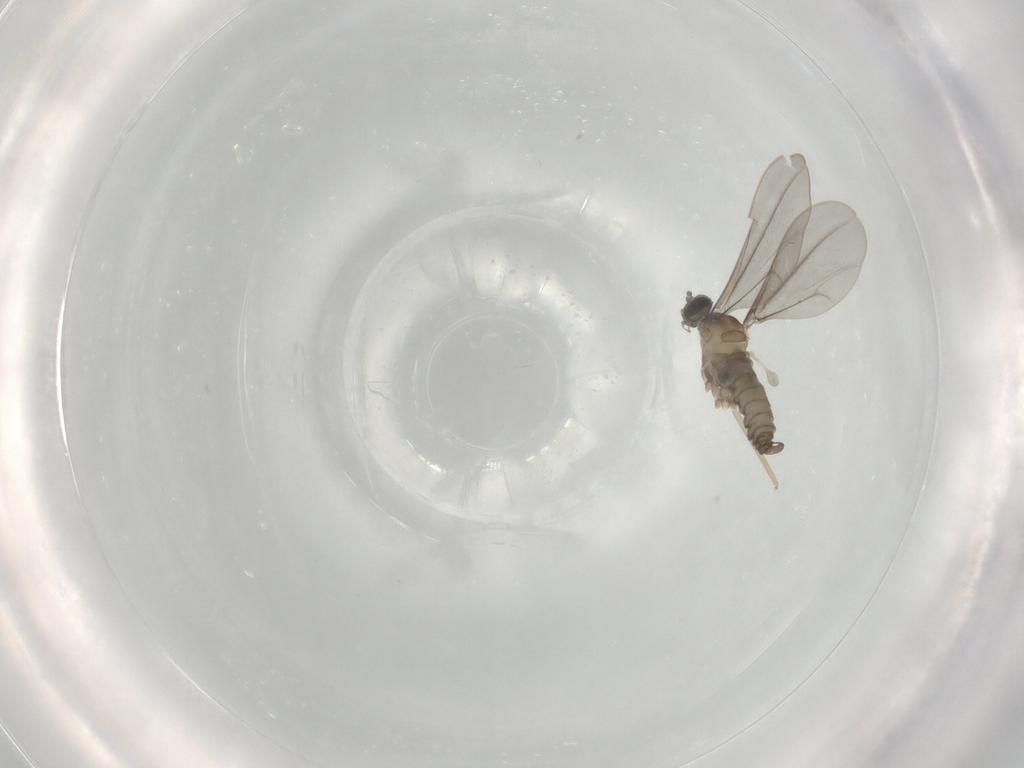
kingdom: Animalia
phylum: Arthropoda
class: Insecta
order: Diptera
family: Cecidomyiidae
